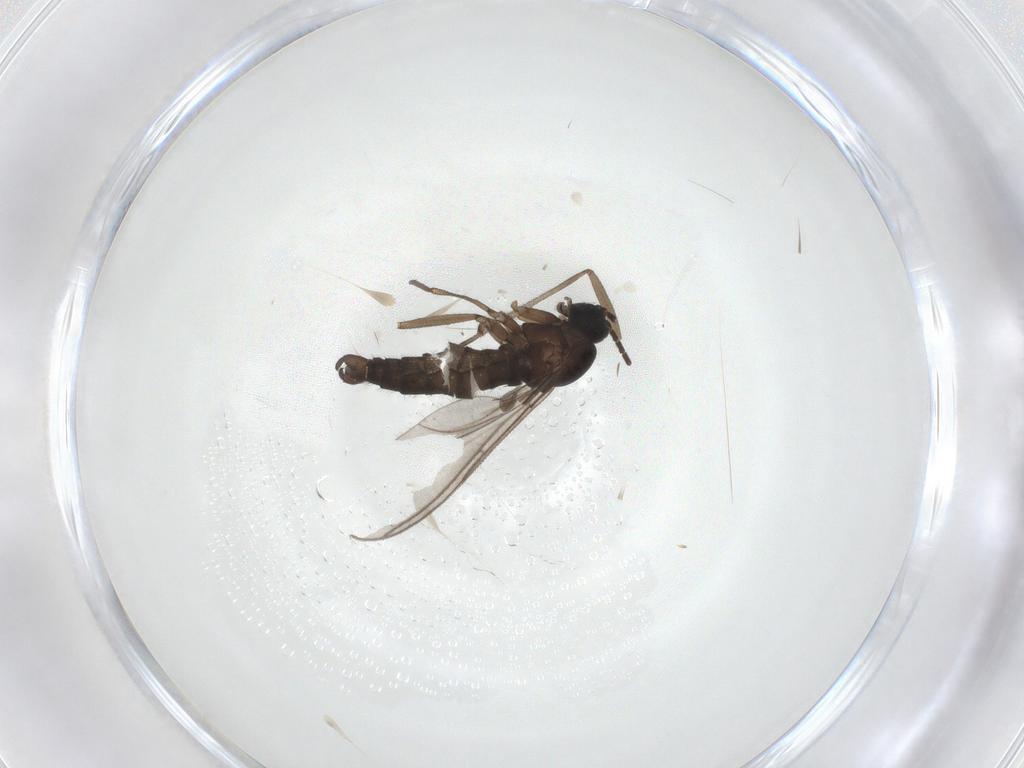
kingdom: Animalia
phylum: Arthropoda
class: Insecta
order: Diptera
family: Sciaridae
